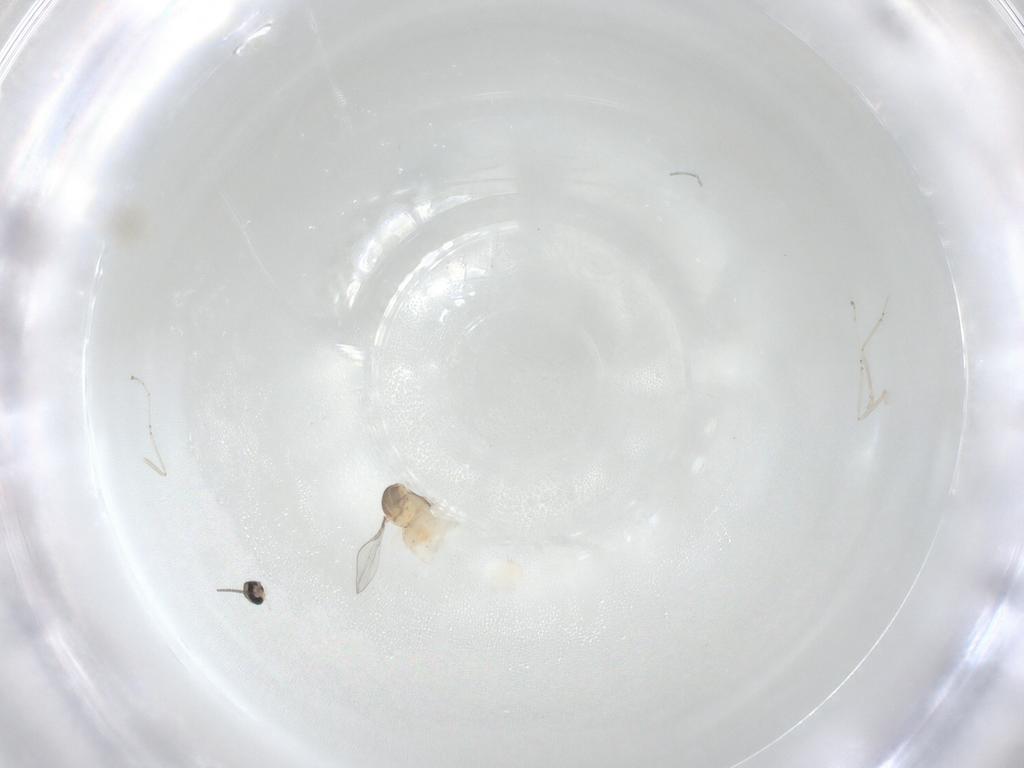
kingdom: Animalia
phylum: Arthropoda
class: Insecta
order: Diptera
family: Cecidomyiidae
